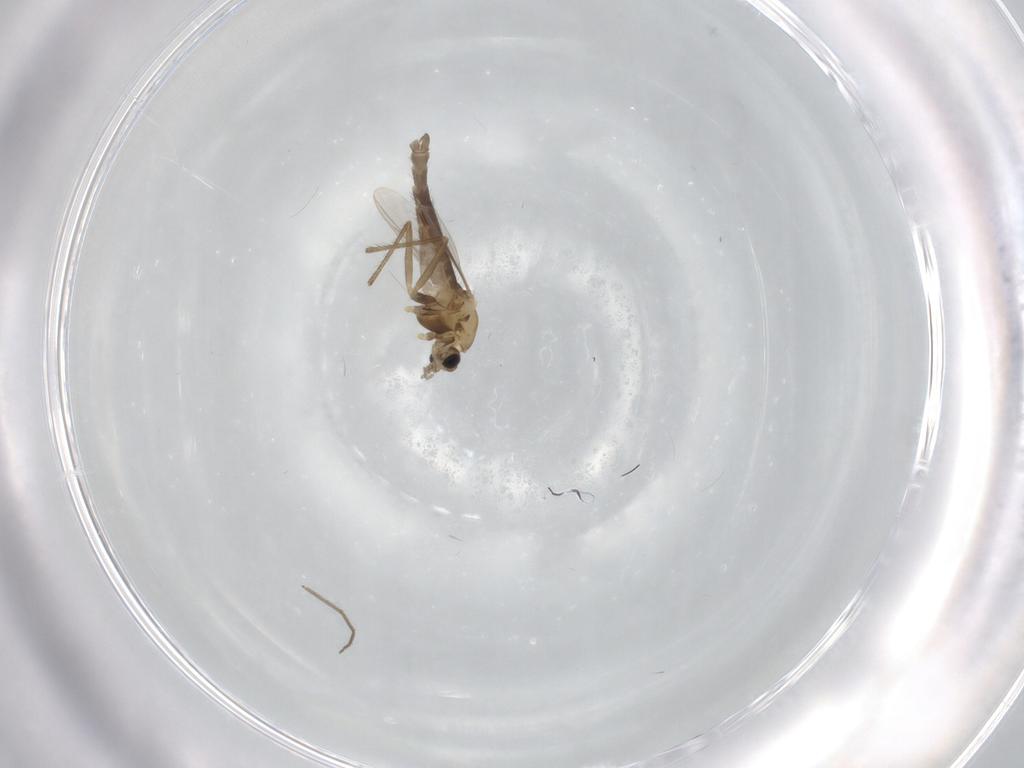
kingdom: Animalia
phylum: Arthropoda
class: Insecta
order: Diptera
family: Chironomidae
